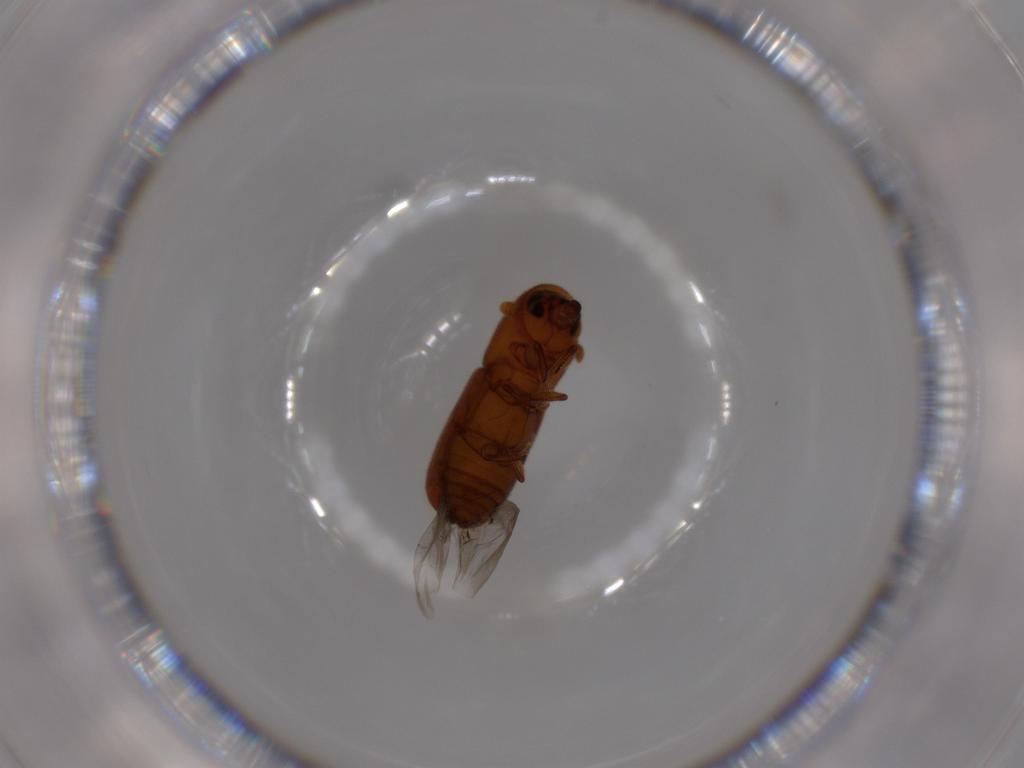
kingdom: Animalia
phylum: Arthropoda
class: Insecta
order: Coleoptera
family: Curculionidae
